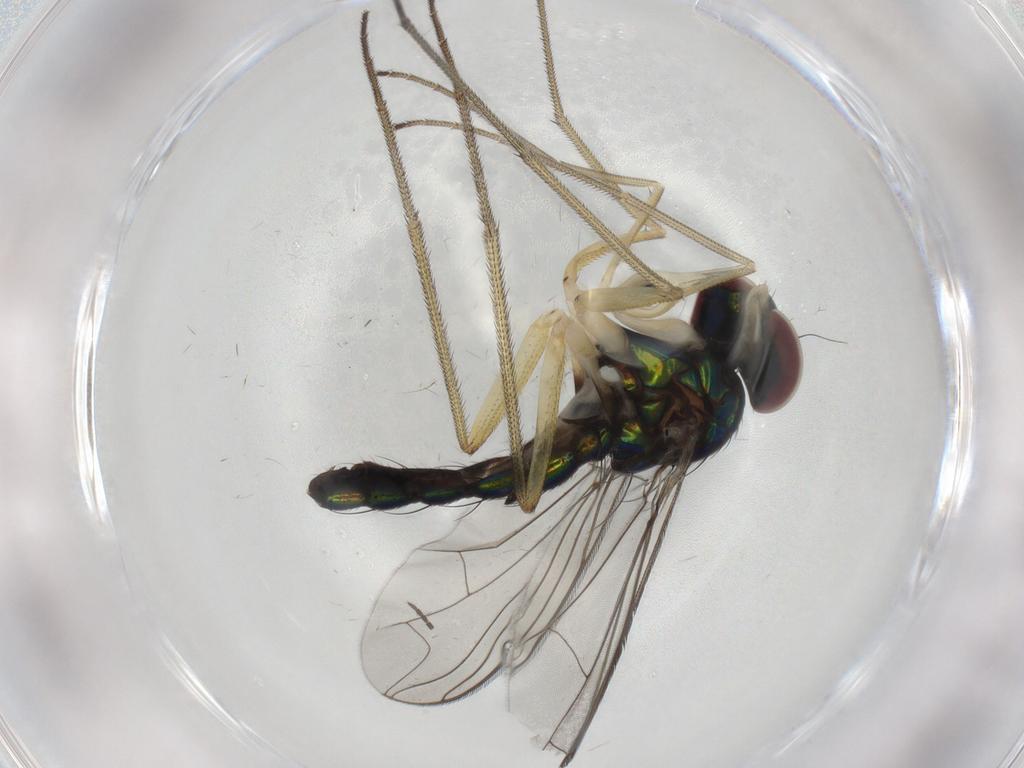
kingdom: Animalia
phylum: Arthropoda
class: Insecta
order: Diptera
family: Dolichopodidae
